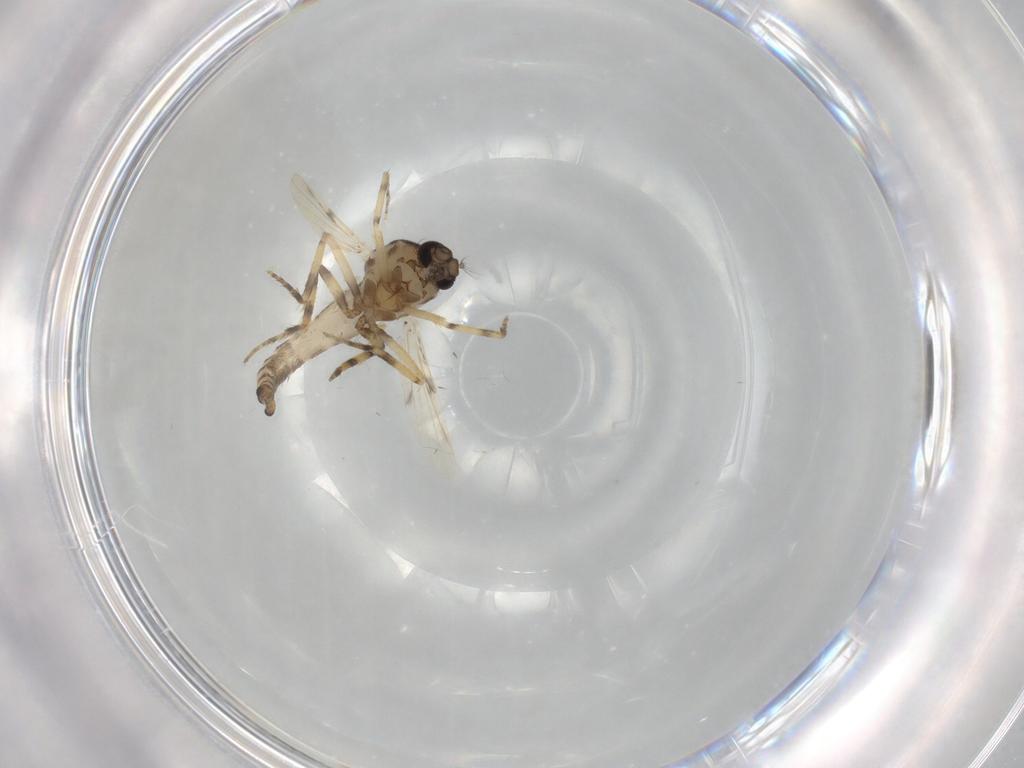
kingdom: Animalia
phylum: Arthropoda
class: Insecta
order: Diptera
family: Ceratopogonidae
